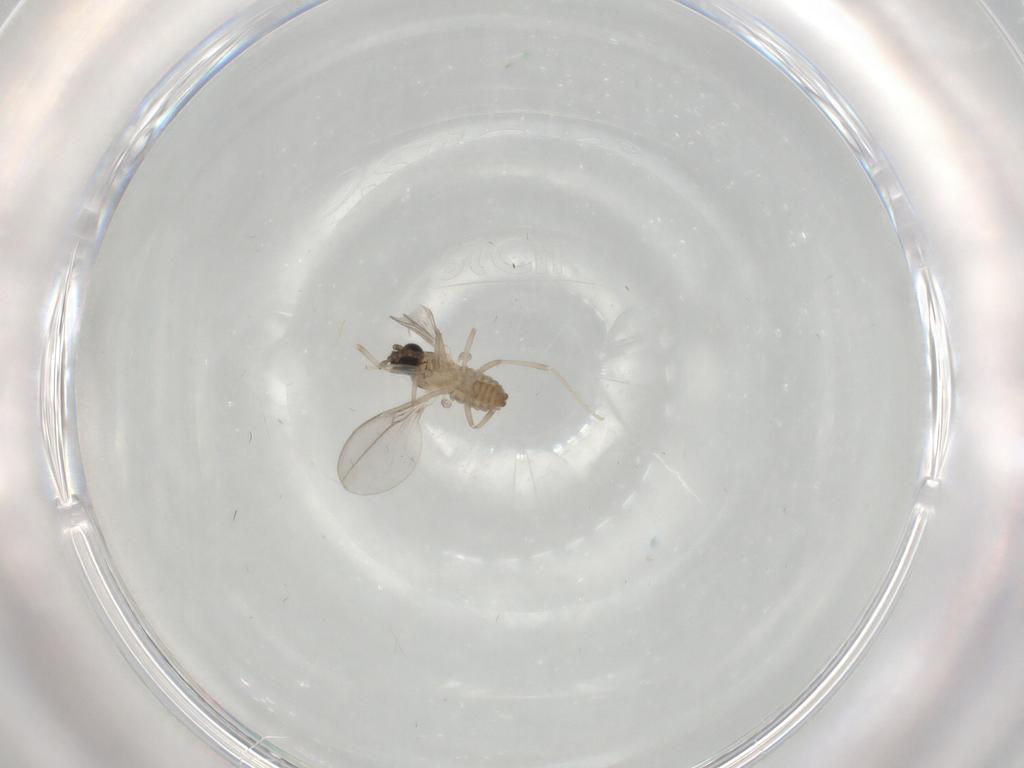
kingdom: Animalia
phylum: Arthropoda
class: Insecta
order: Diptera
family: Cecidomyiidae
